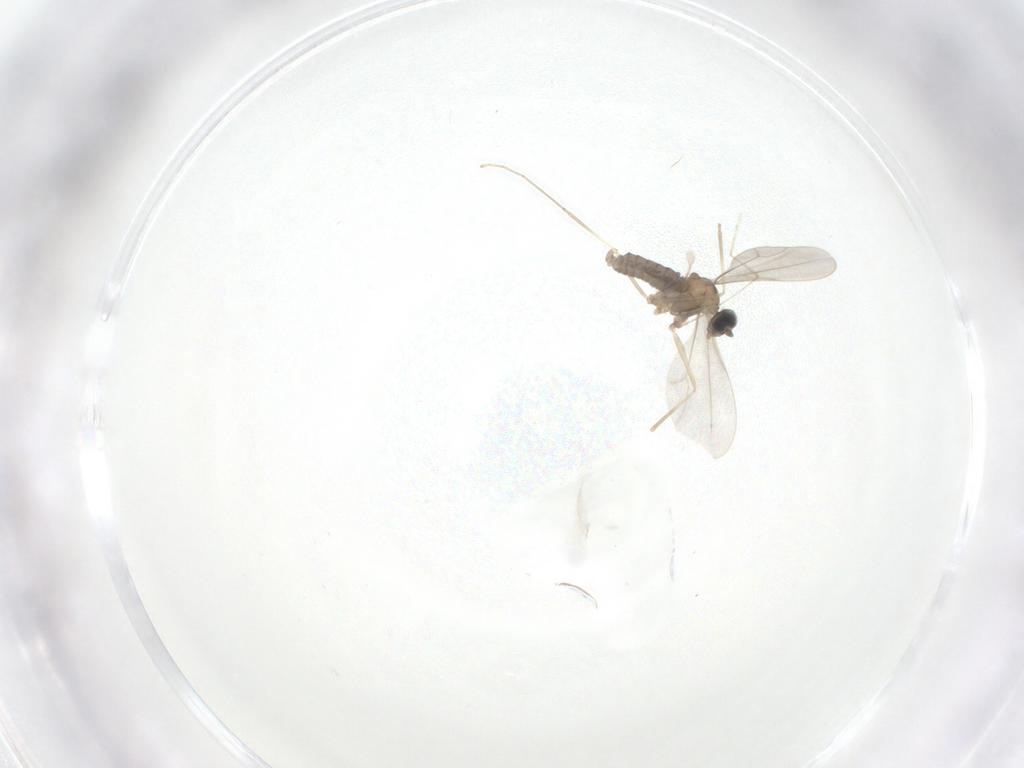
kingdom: Animalia
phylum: Arthropoda
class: Insecta
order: Diptera
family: Cecidomyiidae
